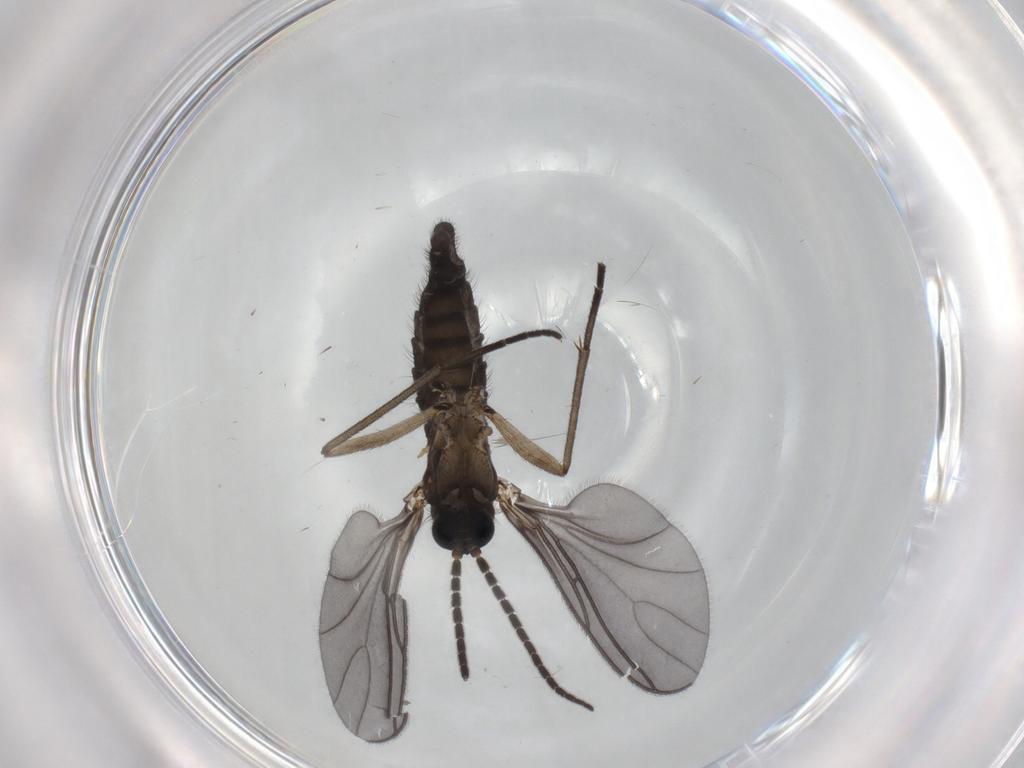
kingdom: Animalia
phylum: Arthropoda
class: Insecta
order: Diptera
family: Sciaridae
